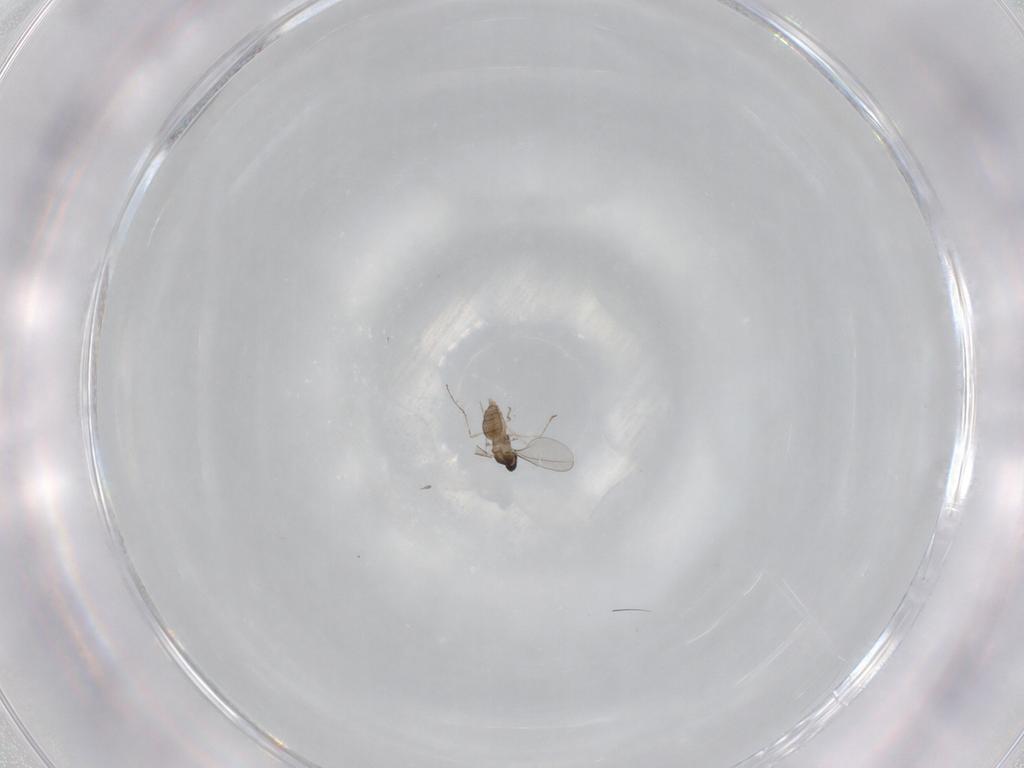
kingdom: Animalia
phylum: Arthropoda
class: Insecta
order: Diptera
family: Cecidomyiidae
